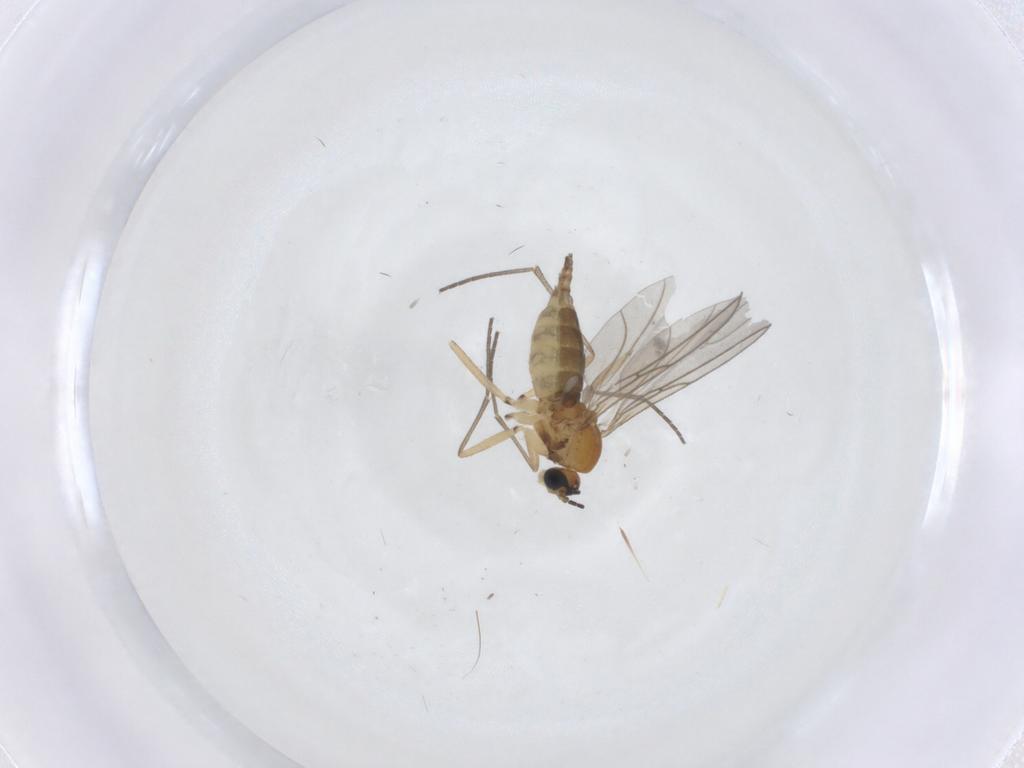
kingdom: Animalia
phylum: Arthropoda
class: Insecta
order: Diptera
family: Sciaridae
